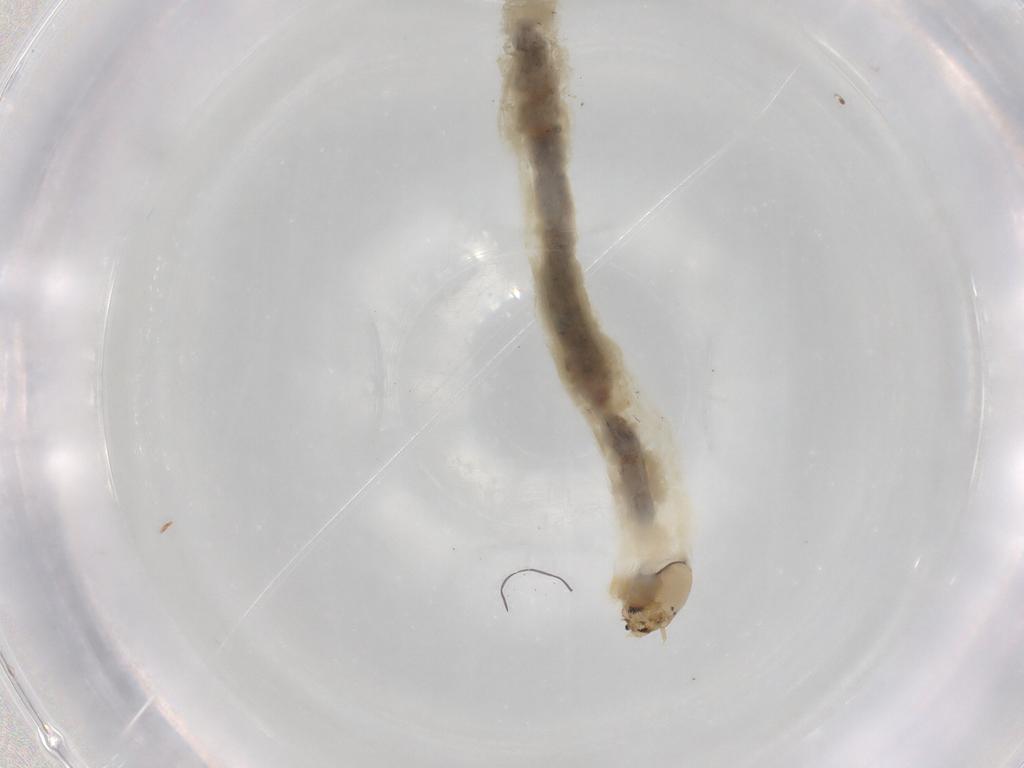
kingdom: Animalia
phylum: Arthropoda
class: Insecta
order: Diptera
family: Chironomidae
